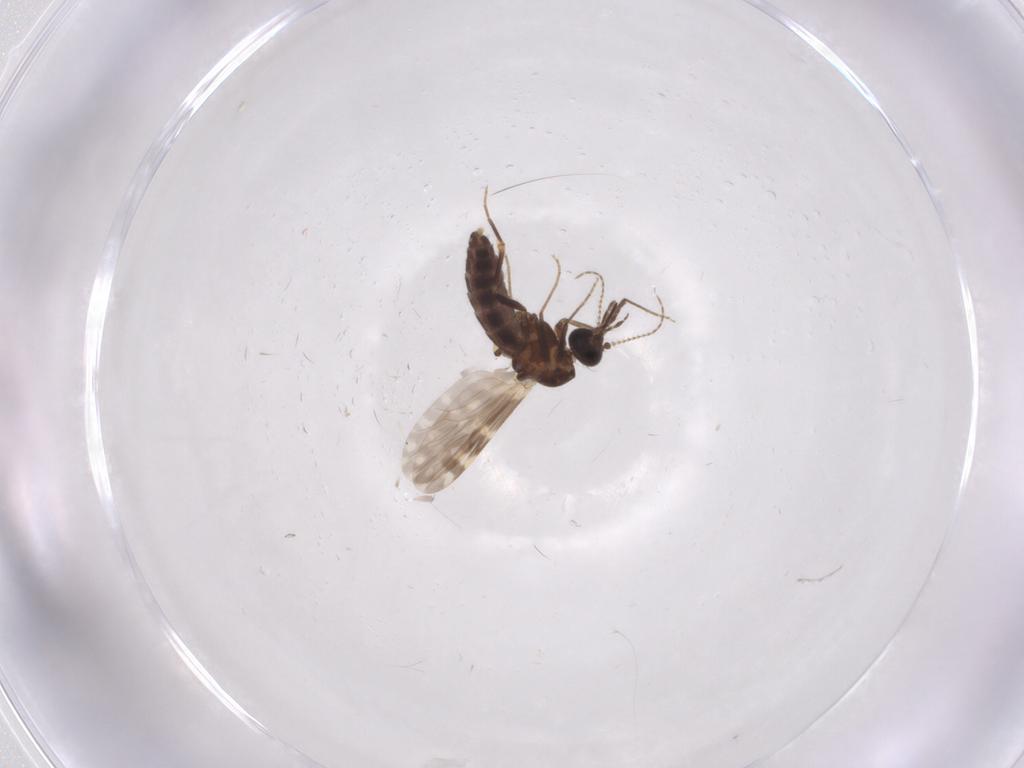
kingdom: Animalia
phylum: Arthropoda
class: Insecta
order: Diptera
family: Ceratopogonidae
